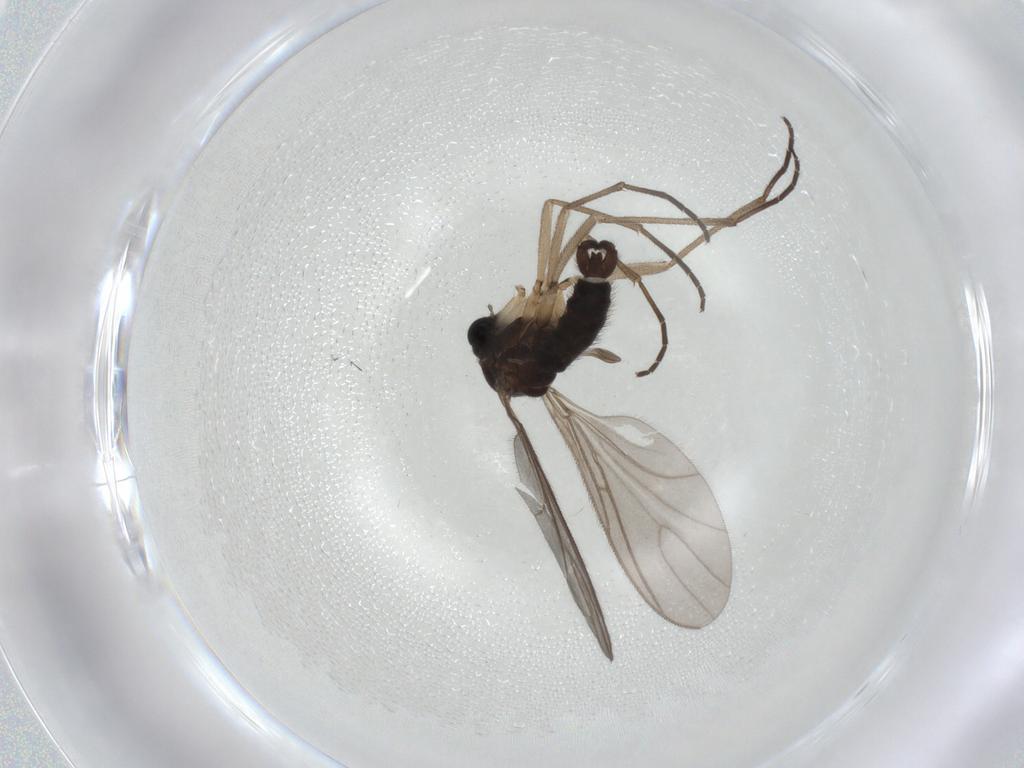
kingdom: Animalia
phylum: Arthropoda
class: Insecta
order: Diptera
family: Sciaridae
